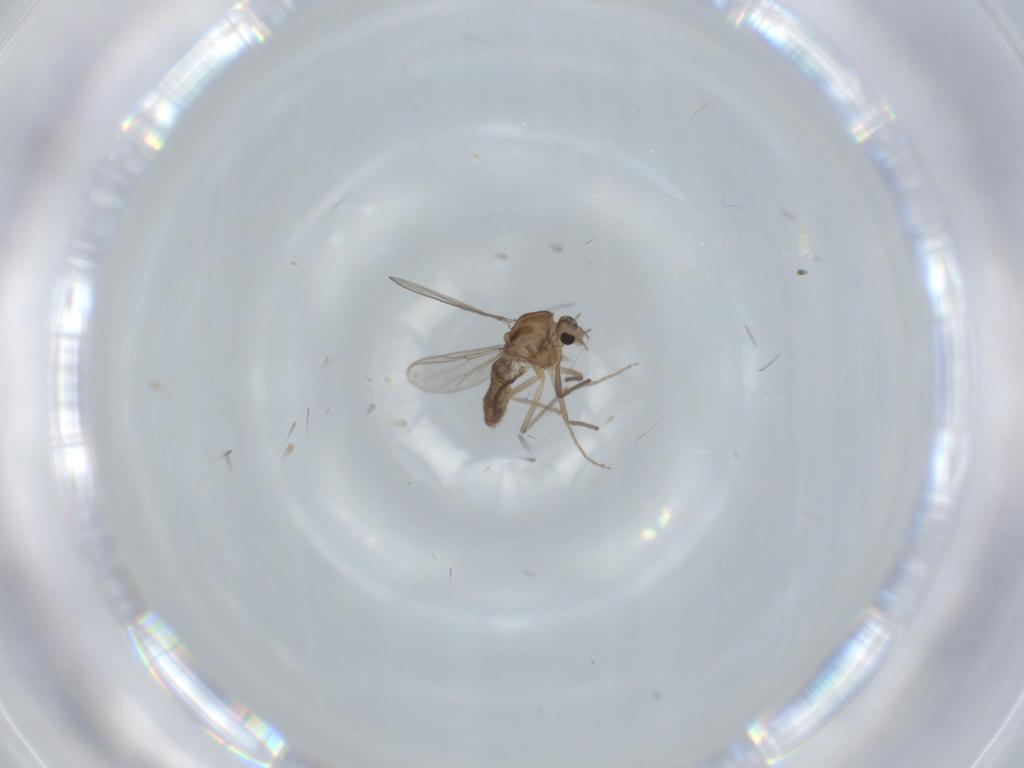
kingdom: Animalia
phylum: Arthropoda
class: Insecta
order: Diptera
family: Chironomidae
